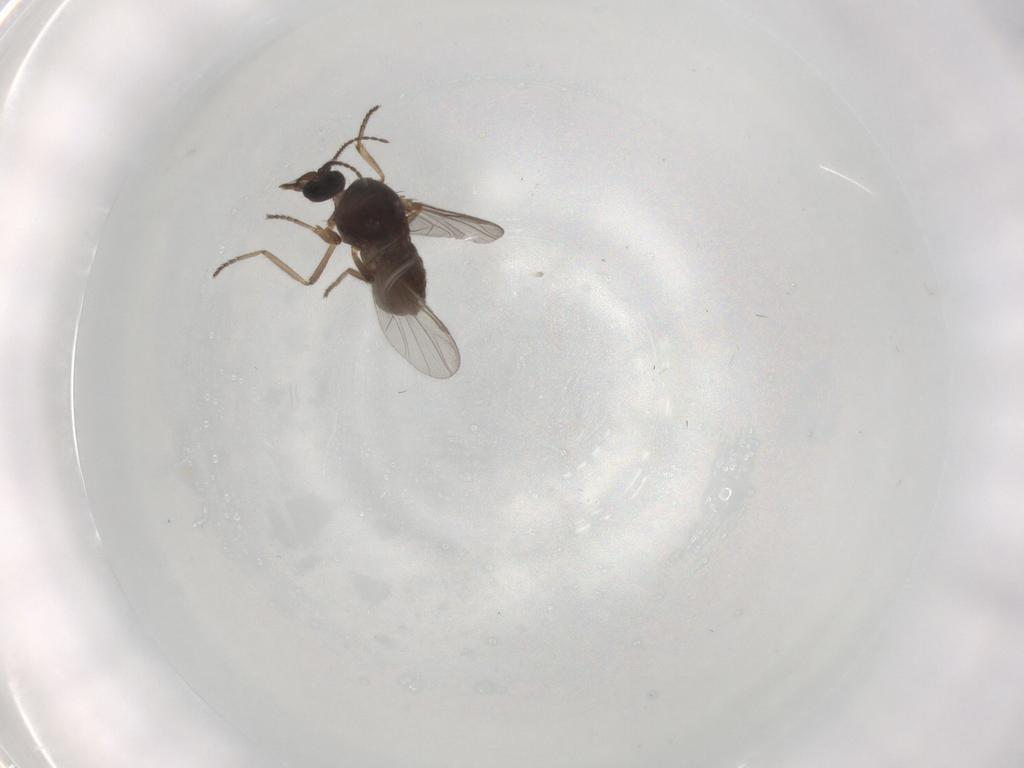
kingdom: Animalia
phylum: Arthropoda
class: Insecta
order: Diptera
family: Ceratopogonidae
